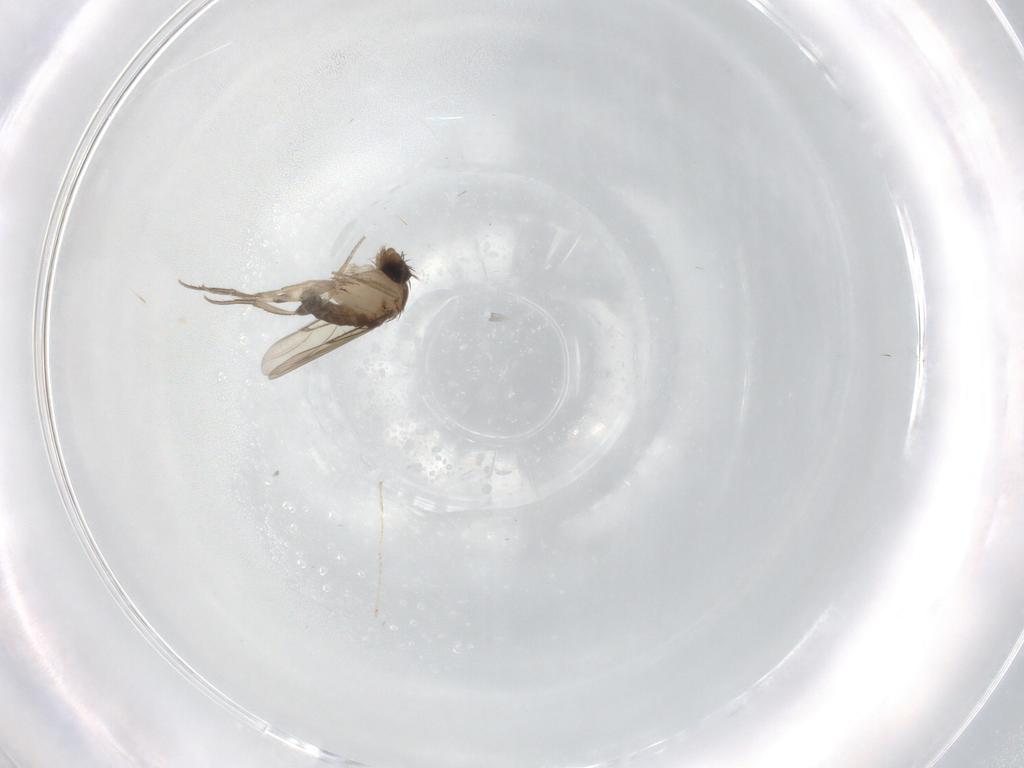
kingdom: Animalia
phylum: Arthropoda
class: Insecta
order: Diptera
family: Phoridae
